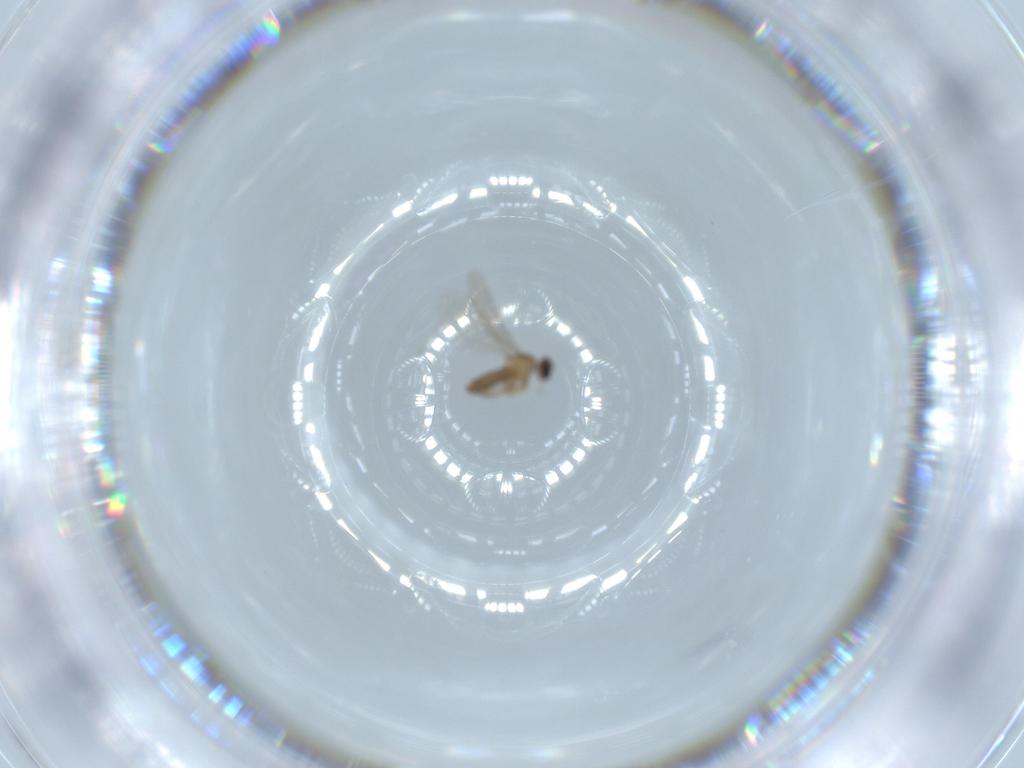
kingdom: Animalia
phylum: Arthropoda
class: Insecta
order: Diptera
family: Cecidomyiidae
